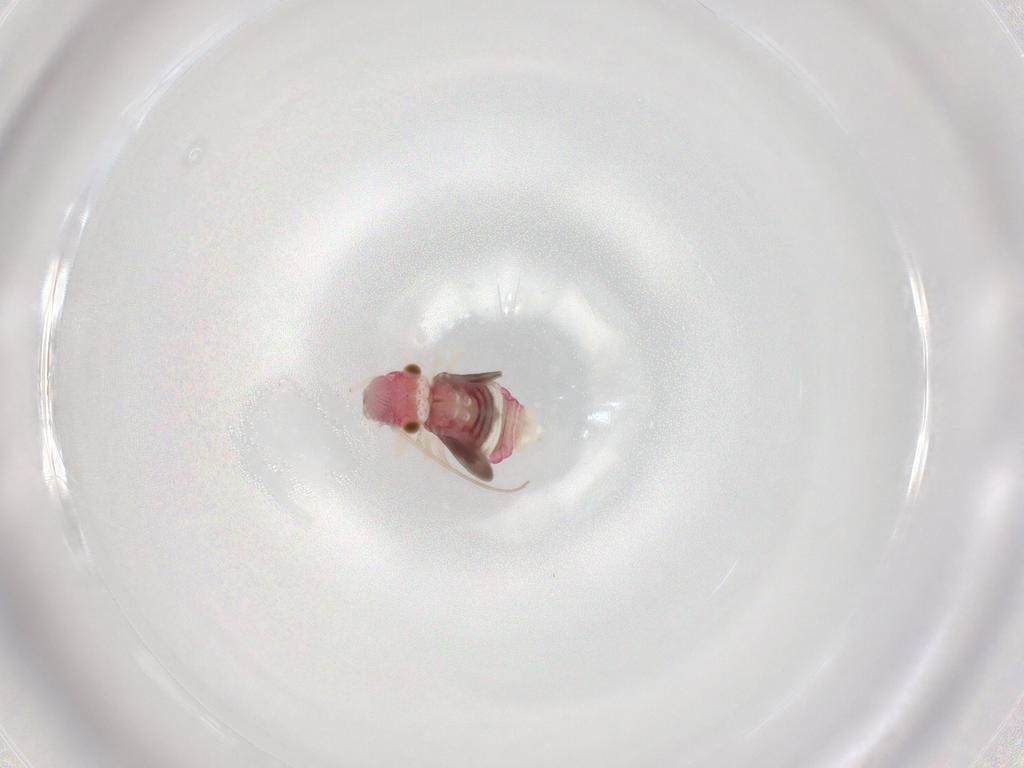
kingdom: Animalia
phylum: Arthropoda
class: Insecta
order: Psocodea
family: Caeciliusidae
